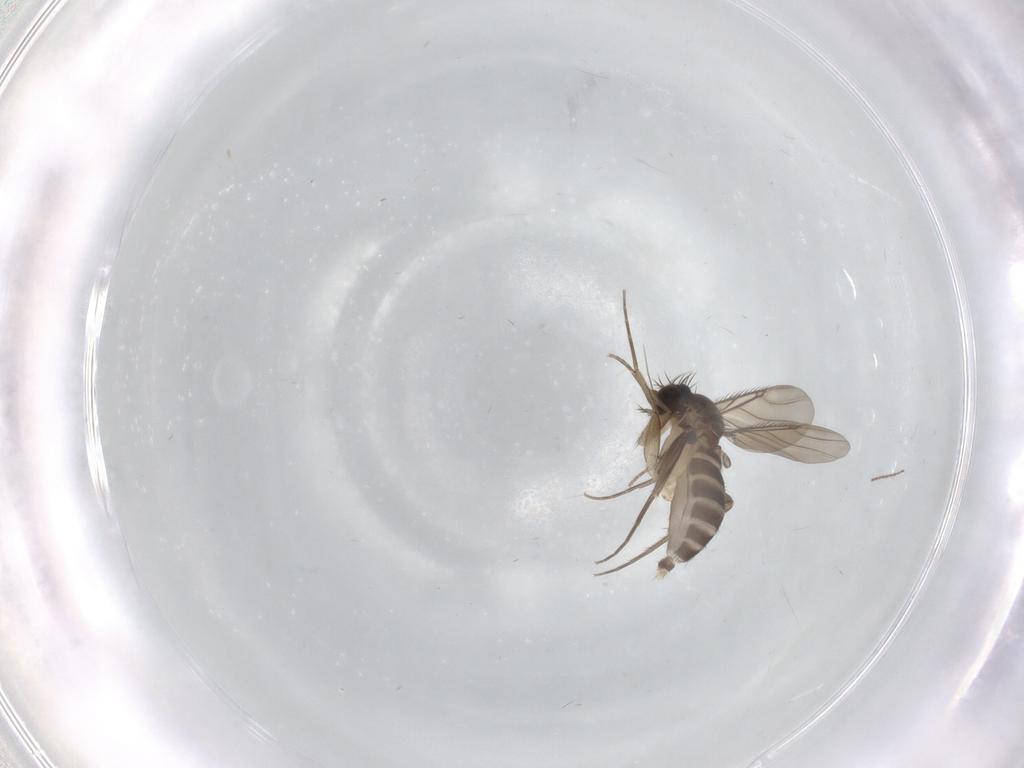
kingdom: Animalia
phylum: Arthropoda
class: Insecta
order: Diptera
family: Phoridae
